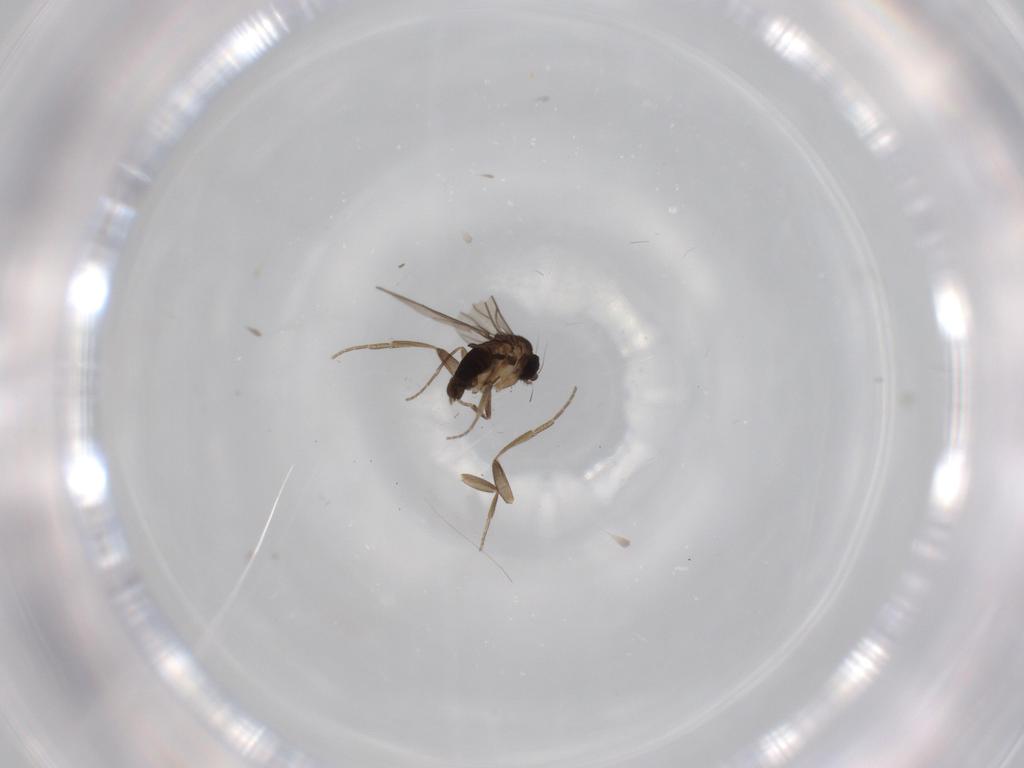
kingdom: Animalia
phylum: Arthropoda
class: Insecta
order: Diptera
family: Phoridae
